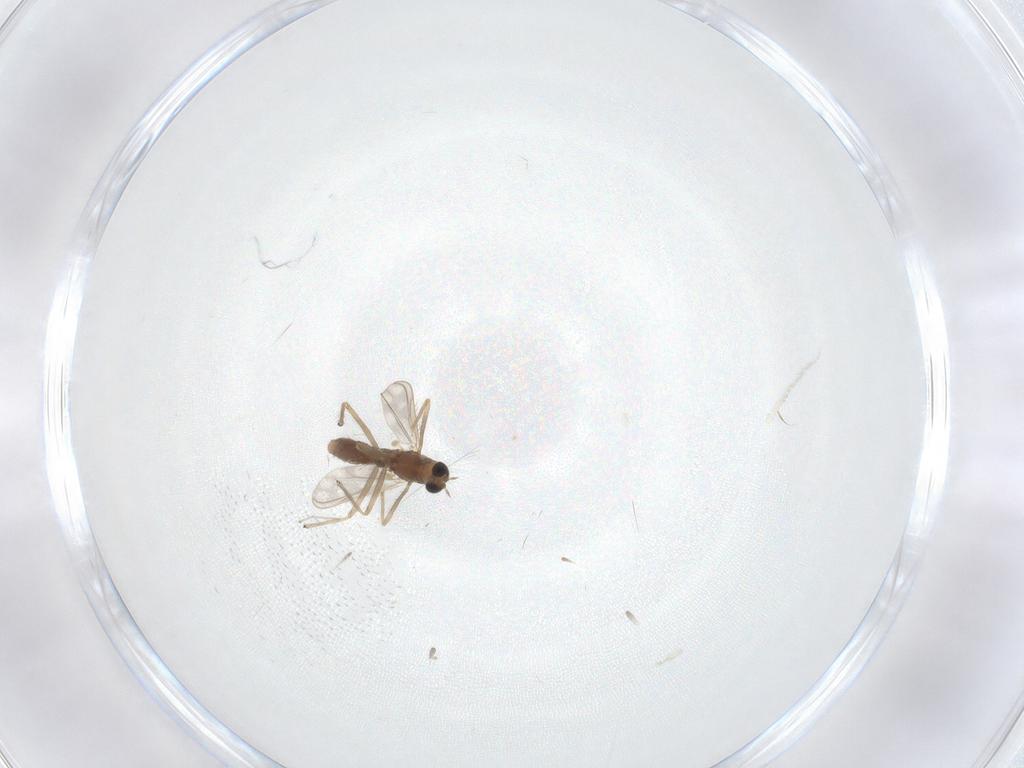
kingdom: Animalia
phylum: Arthropoda
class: Insecta
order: Diptera
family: Chironomidae
